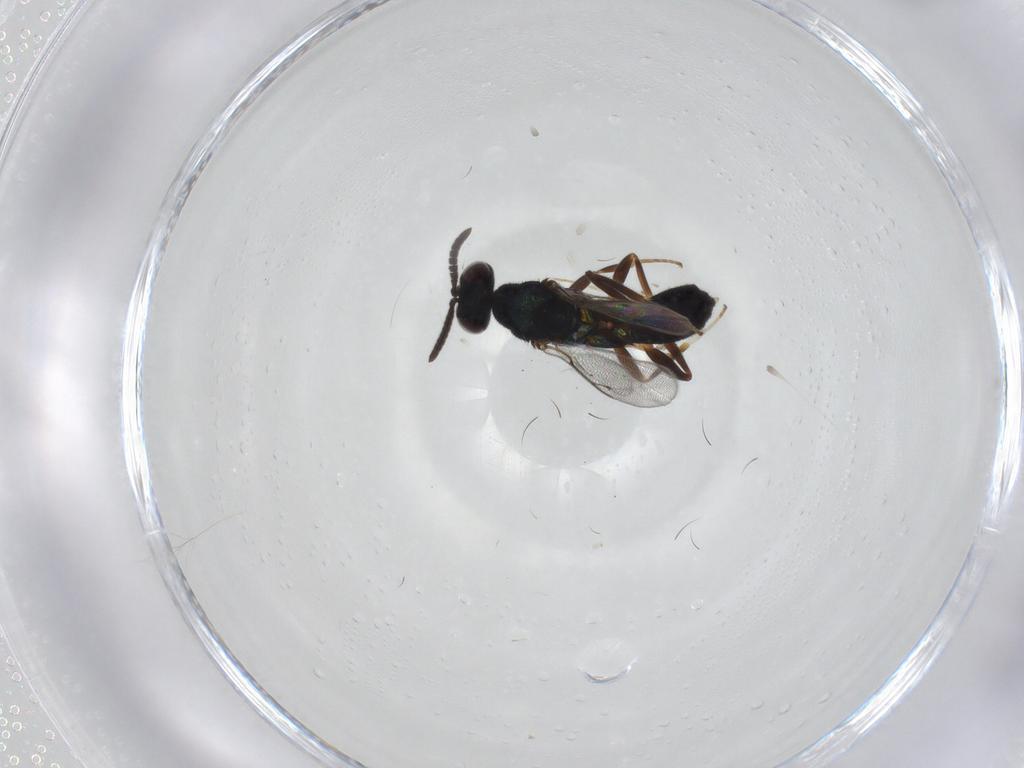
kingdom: Animalia
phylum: Arthropoda
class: Insecta
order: Hymenoptera
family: Cleonyminae
